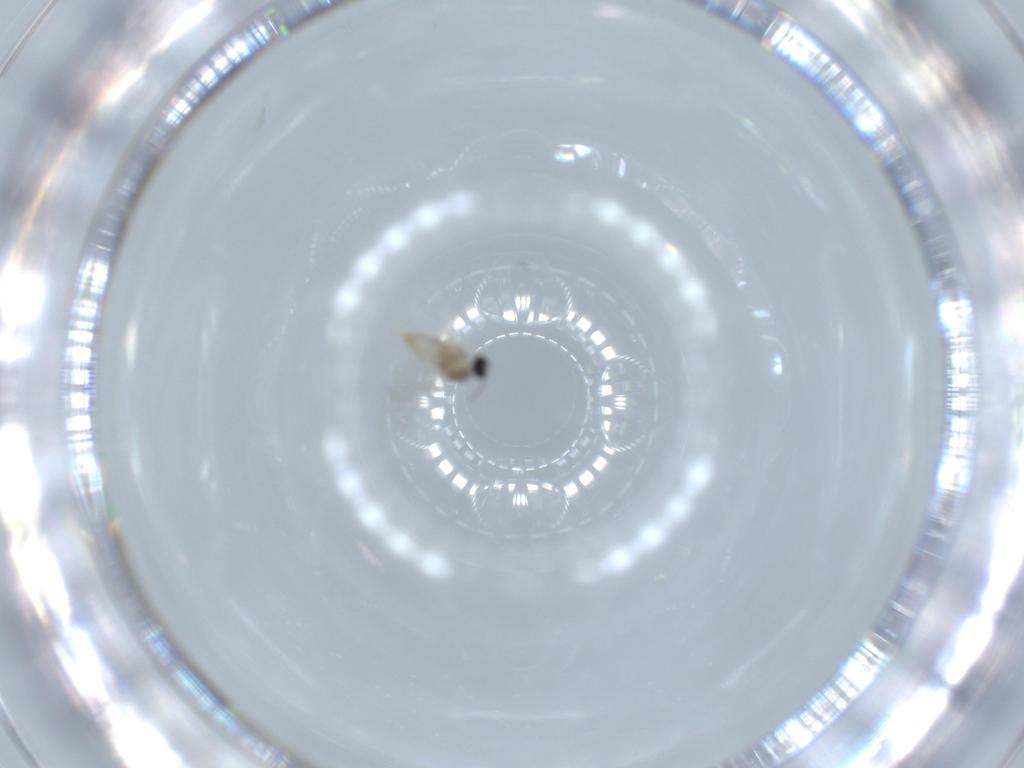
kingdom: Animalia
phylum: Arthropoda
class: Insecta
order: Diptera
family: Cecidomyiidae
